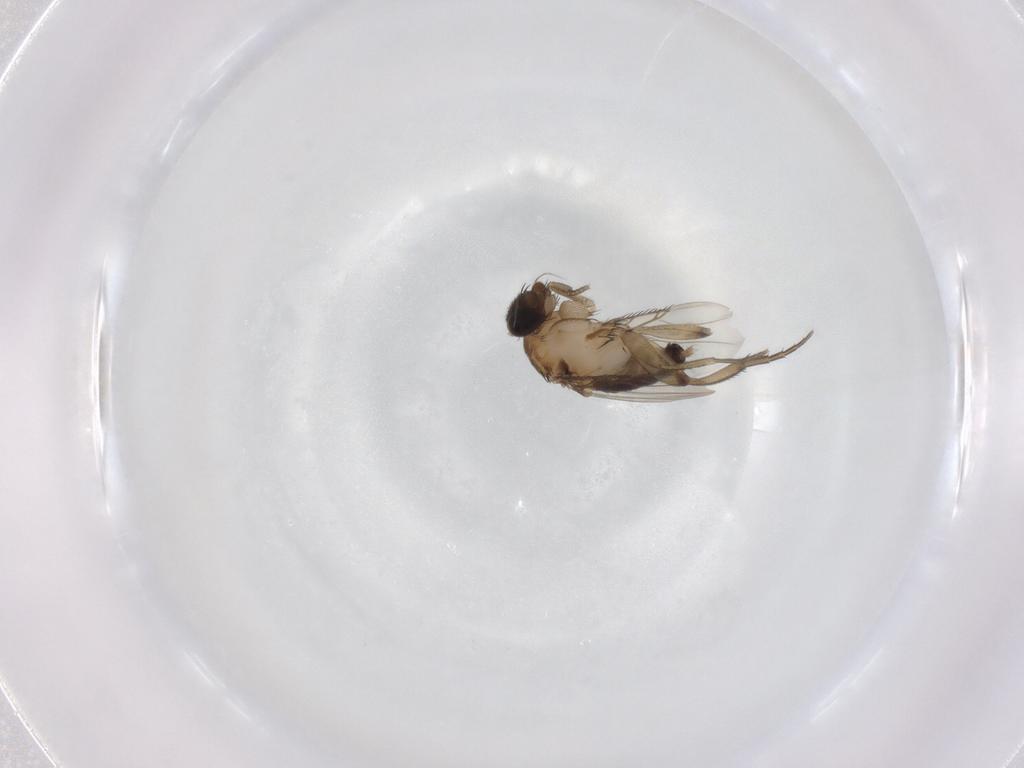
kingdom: Animalia
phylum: Arthropoda
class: Insecta
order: Diptera
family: Phoridae
